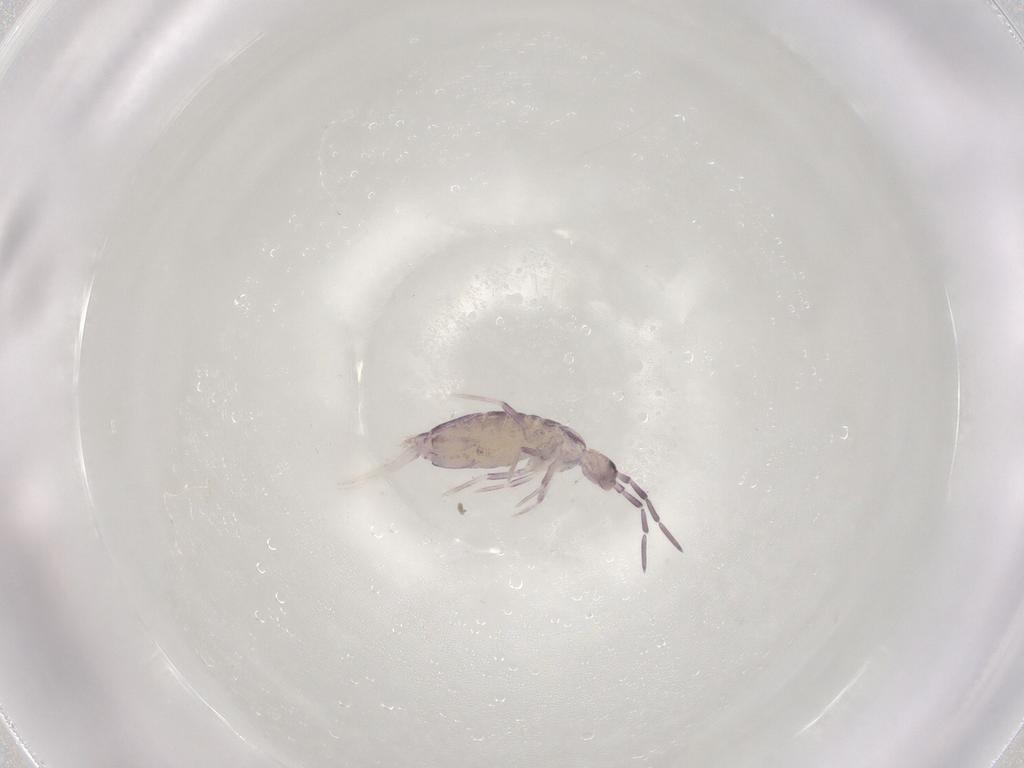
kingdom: Animalia
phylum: Arthropoda
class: Collembola
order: Poduromorpha
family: Hypogastruridae
